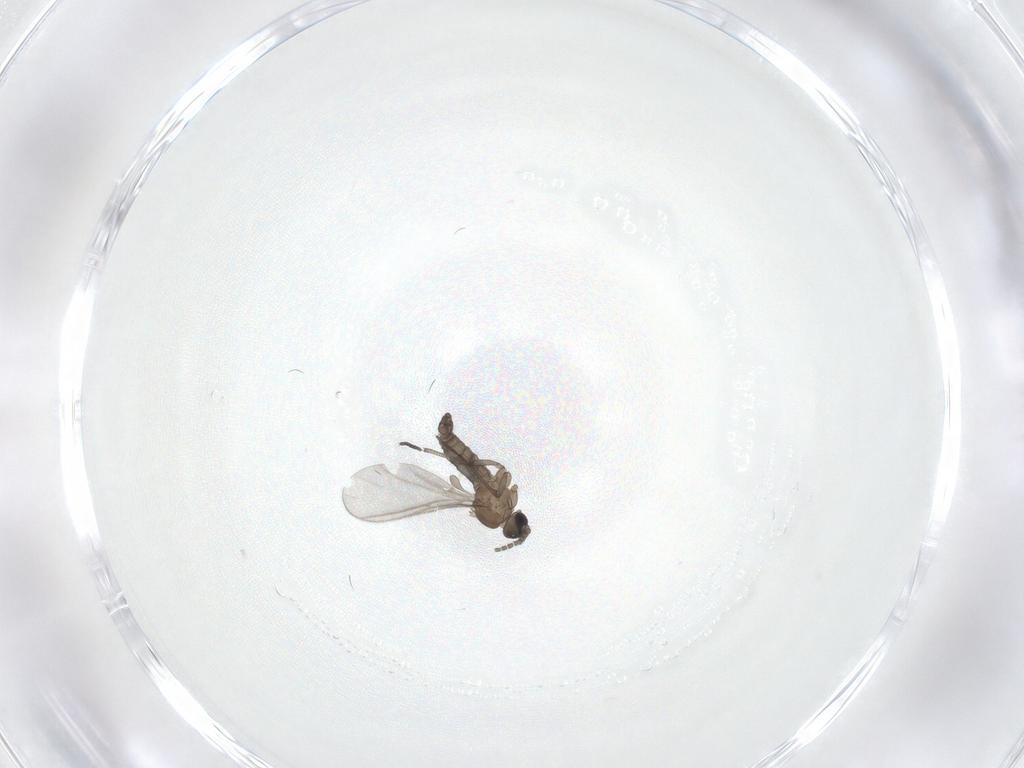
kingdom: Animalia
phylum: Arthropoda
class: Insecta
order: Diptera
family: Sciaridae
